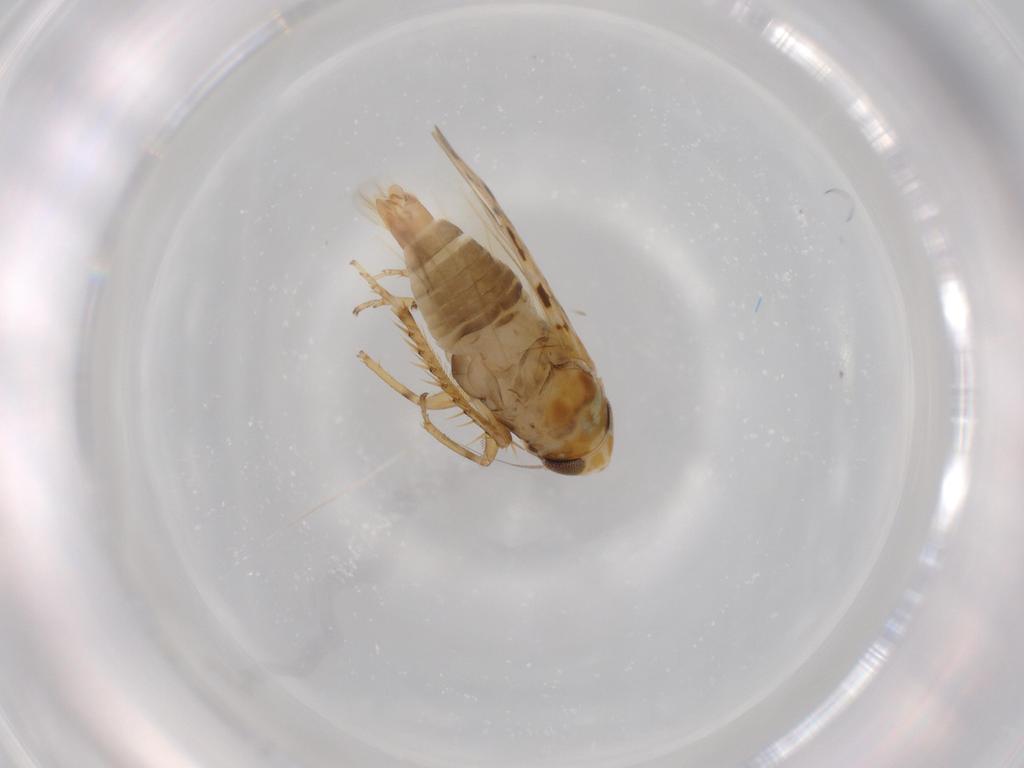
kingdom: Animalia
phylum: Arthropoda
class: Insecta
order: Hemiptera
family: Cicadellidae
